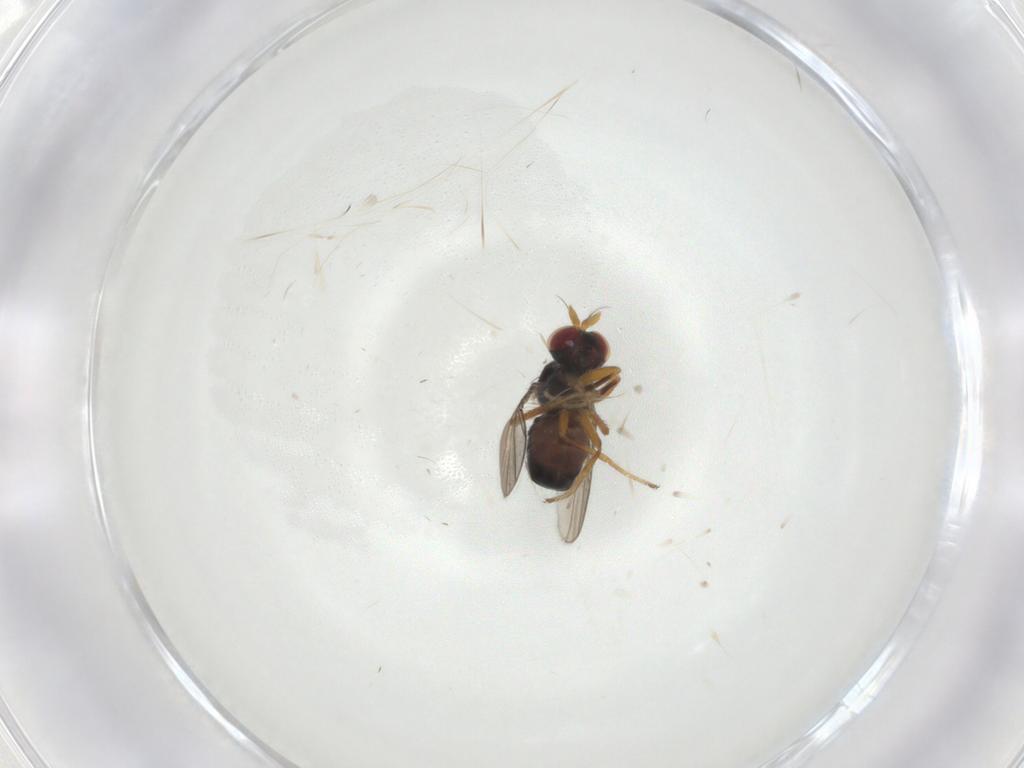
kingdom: Animalia
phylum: Arthropoda
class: Insecta
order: Diptera
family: Ephydridae
